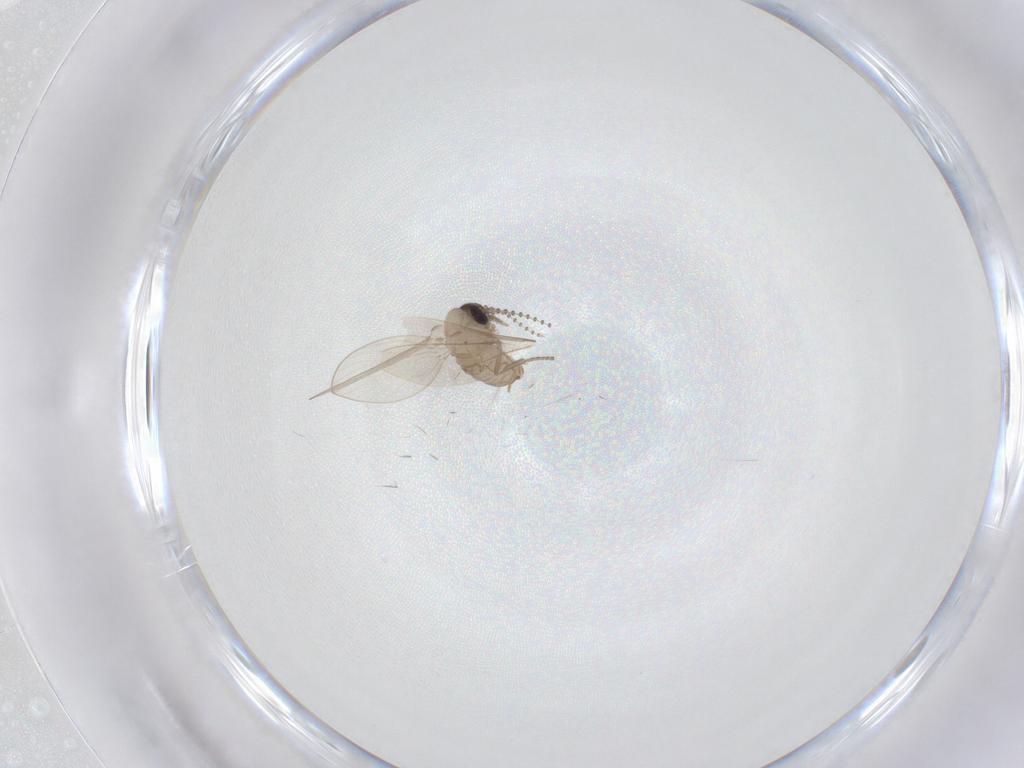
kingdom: Animalia
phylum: Arthropoda
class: Insecta
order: Diptera
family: Cecidomyiidae
